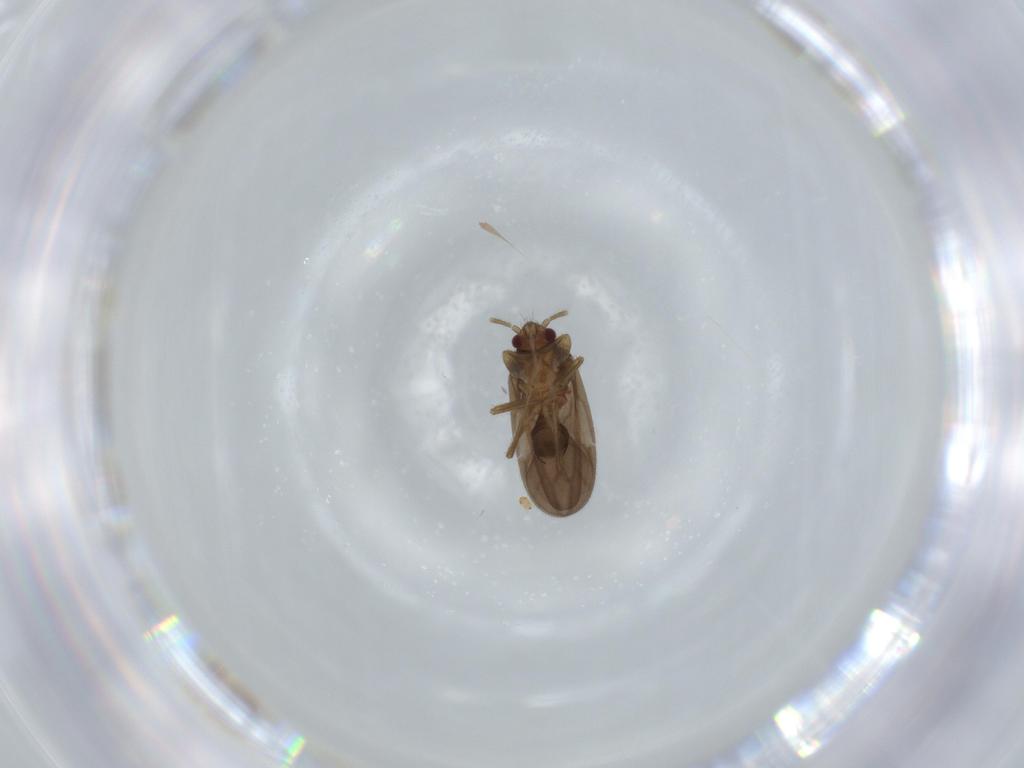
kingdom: Animalia
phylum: Arthropoda
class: Insecta
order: Hemiptera
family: Ceratocombidae
